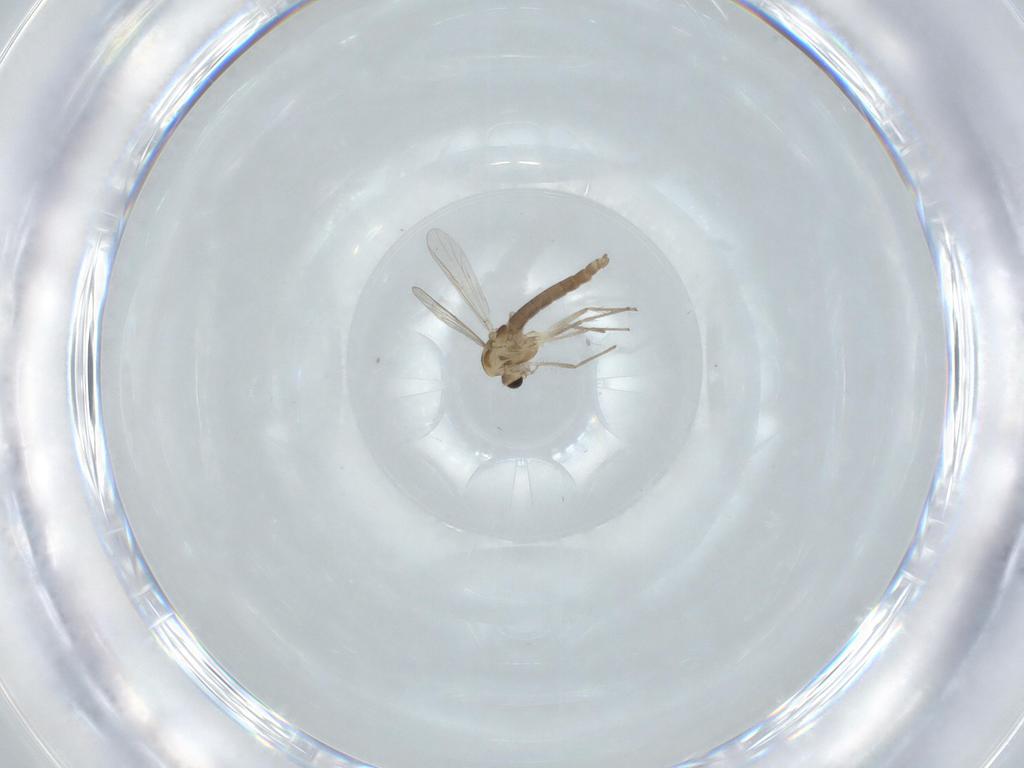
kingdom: Animalia
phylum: Arthropoda
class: Insecta
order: Diptera
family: Chironomidae
